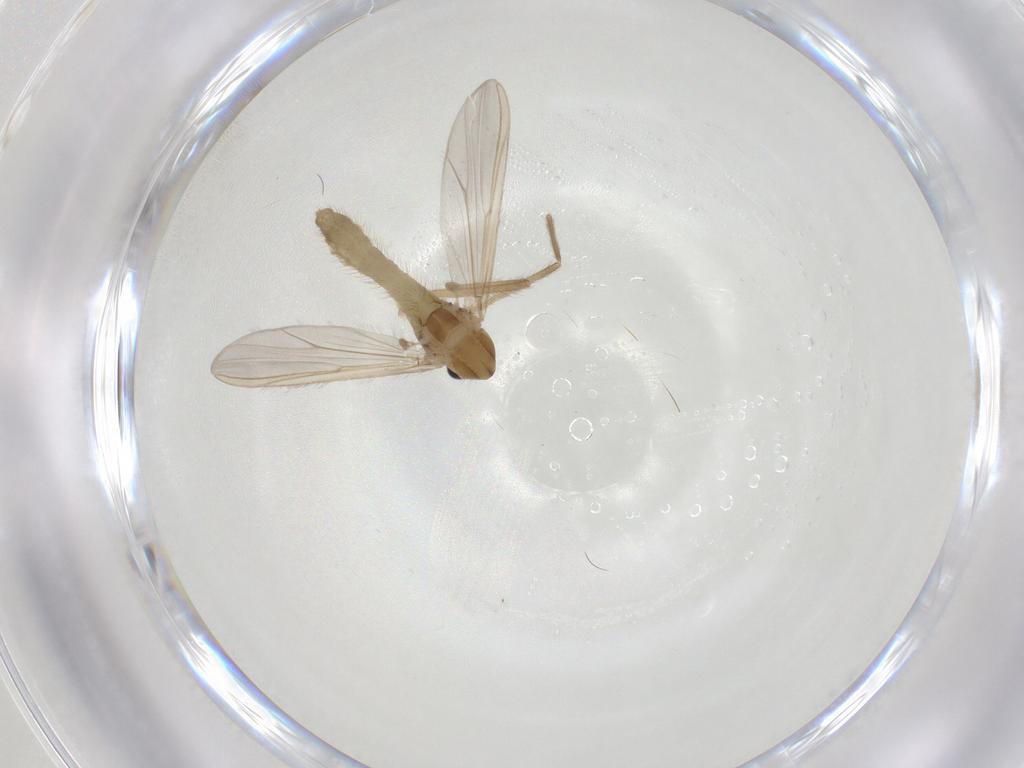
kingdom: Animalia
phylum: Arthropoda
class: Insecta
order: Diptera
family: Chironomidae
